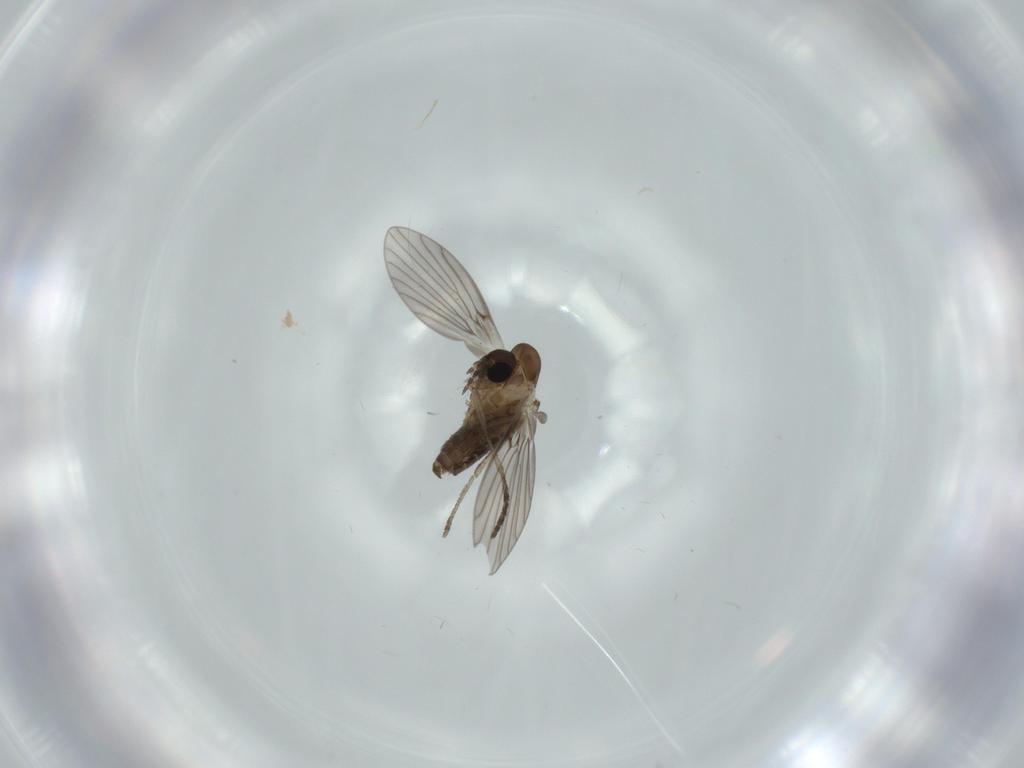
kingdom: Animalia
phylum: Arthropoda
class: Insecta
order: Diptera
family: Psychodidae
